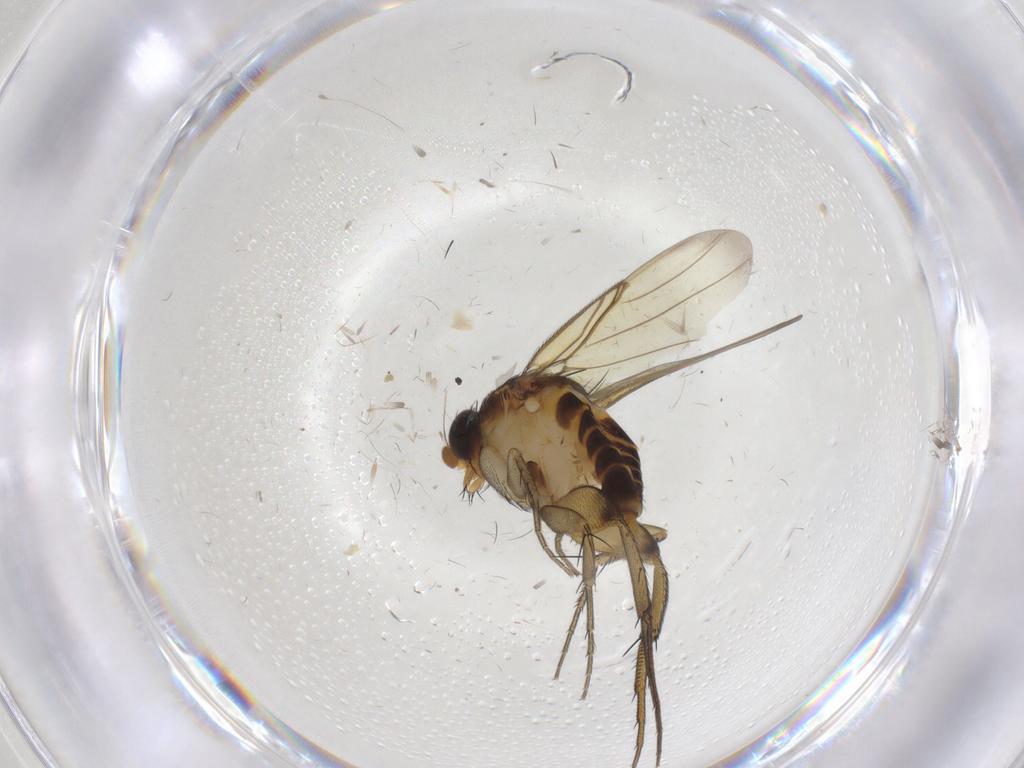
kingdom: Animalia
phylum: Arthropoda
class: Insecta
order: Diptera
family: Phoridae
